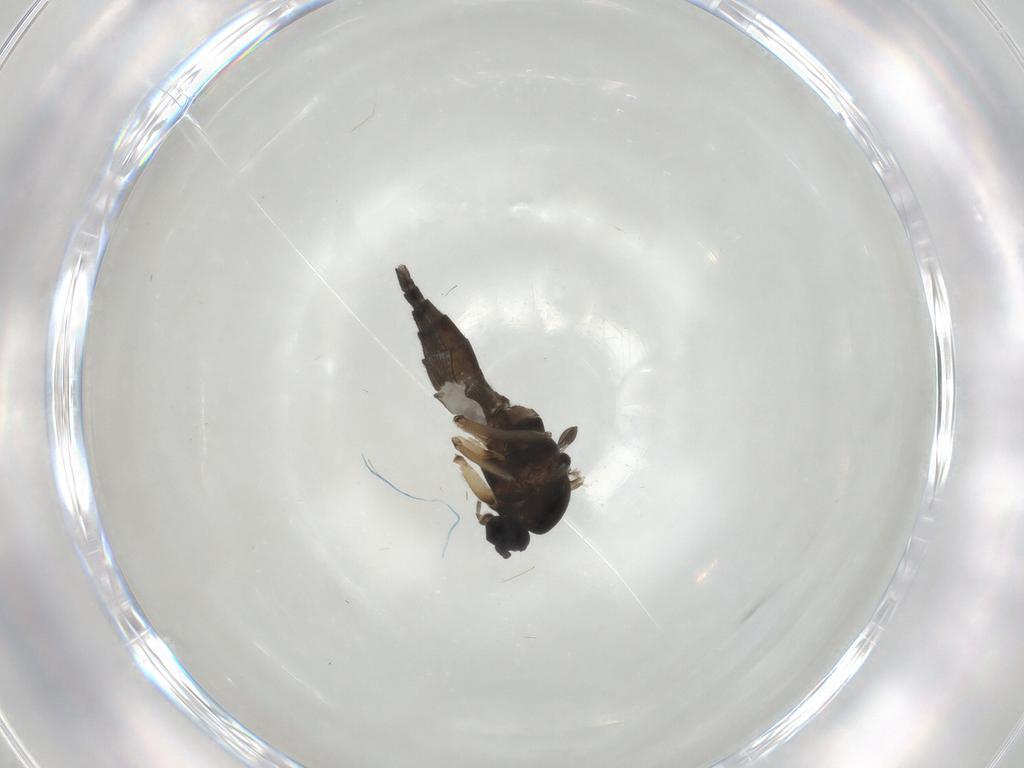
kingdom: Animalia
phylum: Arthropoda
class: Insecta
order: Diptera
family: Sciaridae
